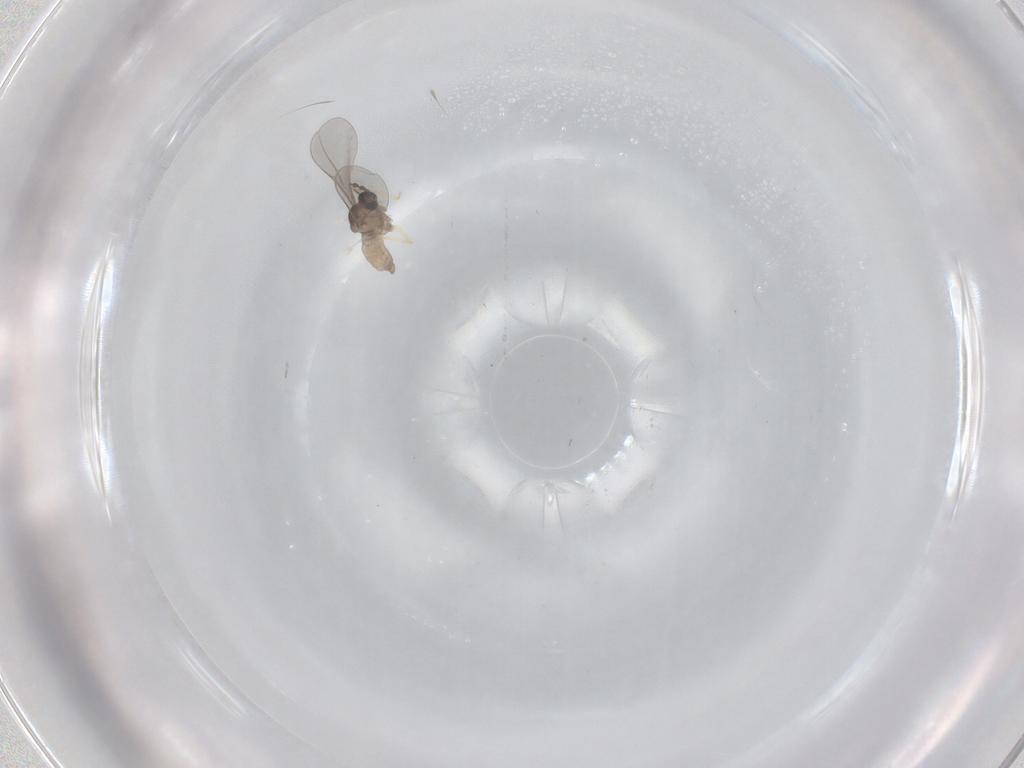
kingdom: Animalia
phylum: Arthropoda
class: Insecta
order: Diptera
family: Cecidomyiidae
